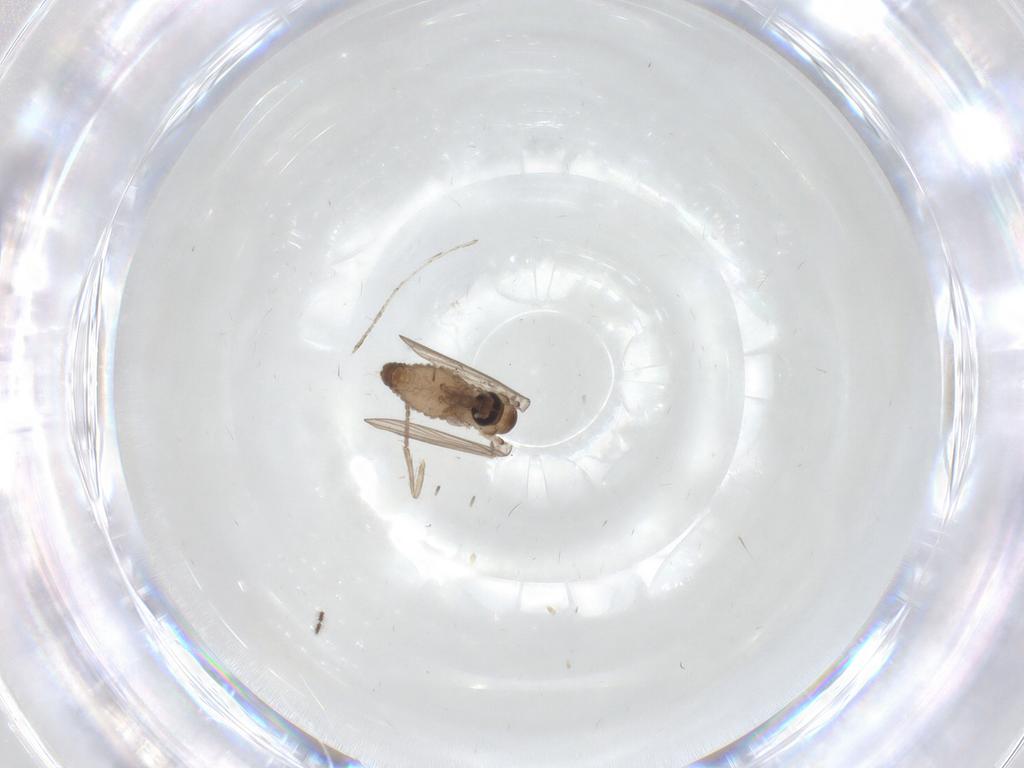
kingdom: Animalia
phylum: Arthropoda
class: Insecta
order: Diptera
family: Psychodidae
